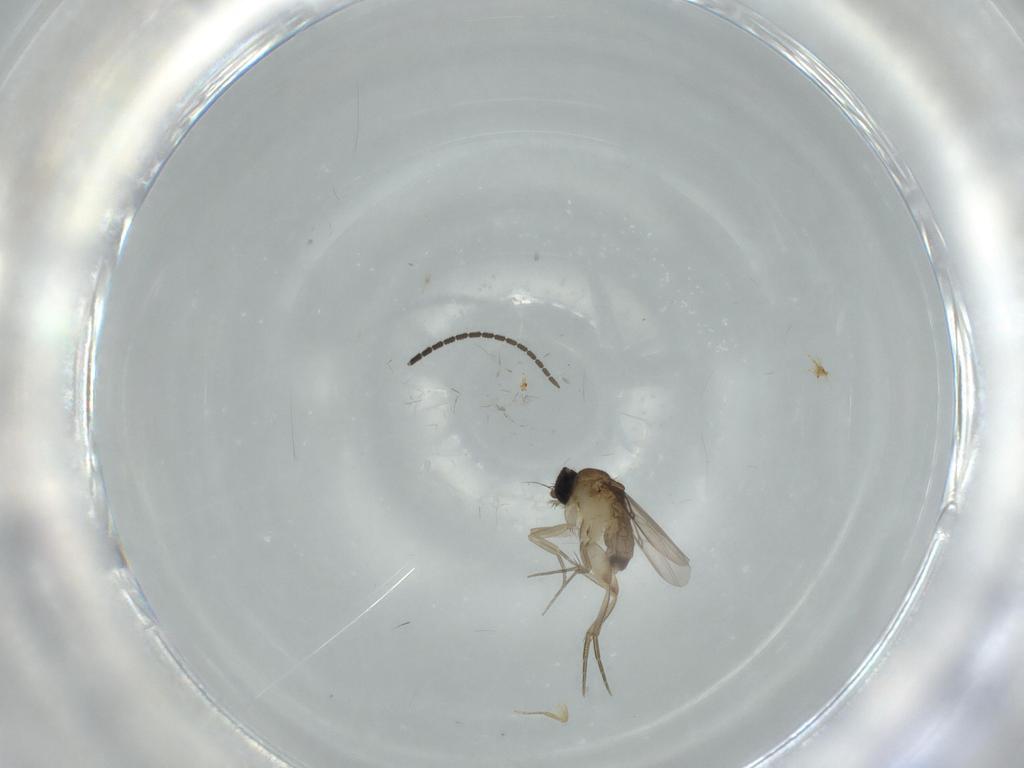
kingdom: Animalia
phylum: Arthropoda
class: Insecta
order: Diptera
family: Phoridae
